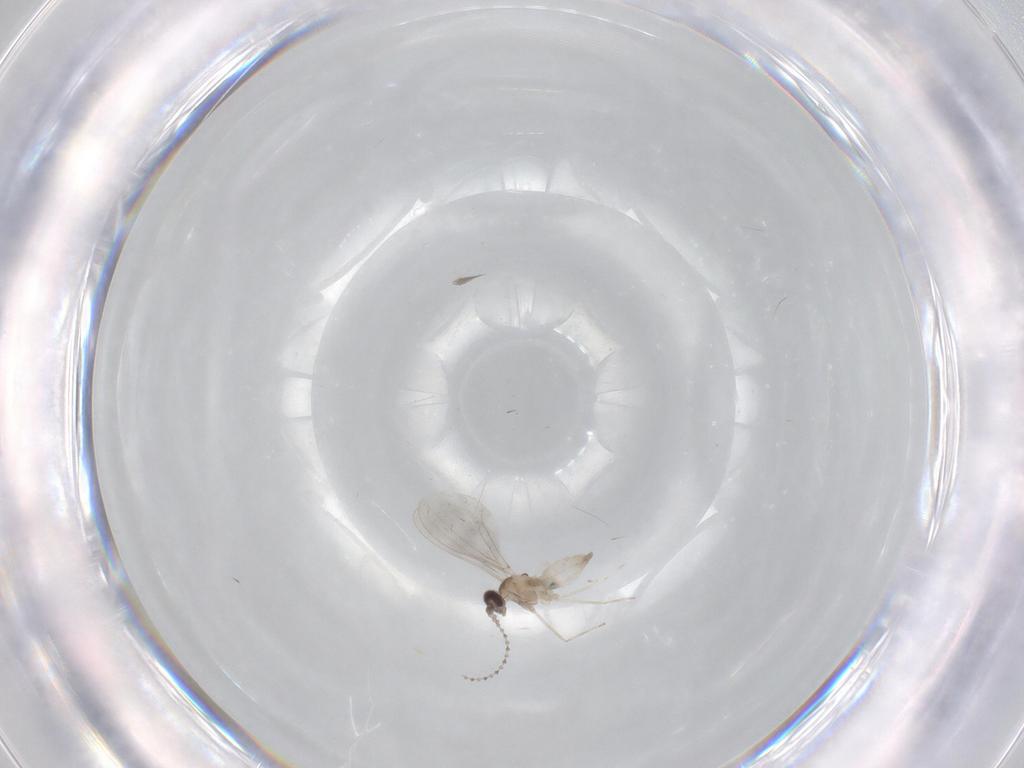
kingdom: Animalia
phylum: Arthropoda
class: Insecta
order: Diptera
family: Cecidomyiidae
